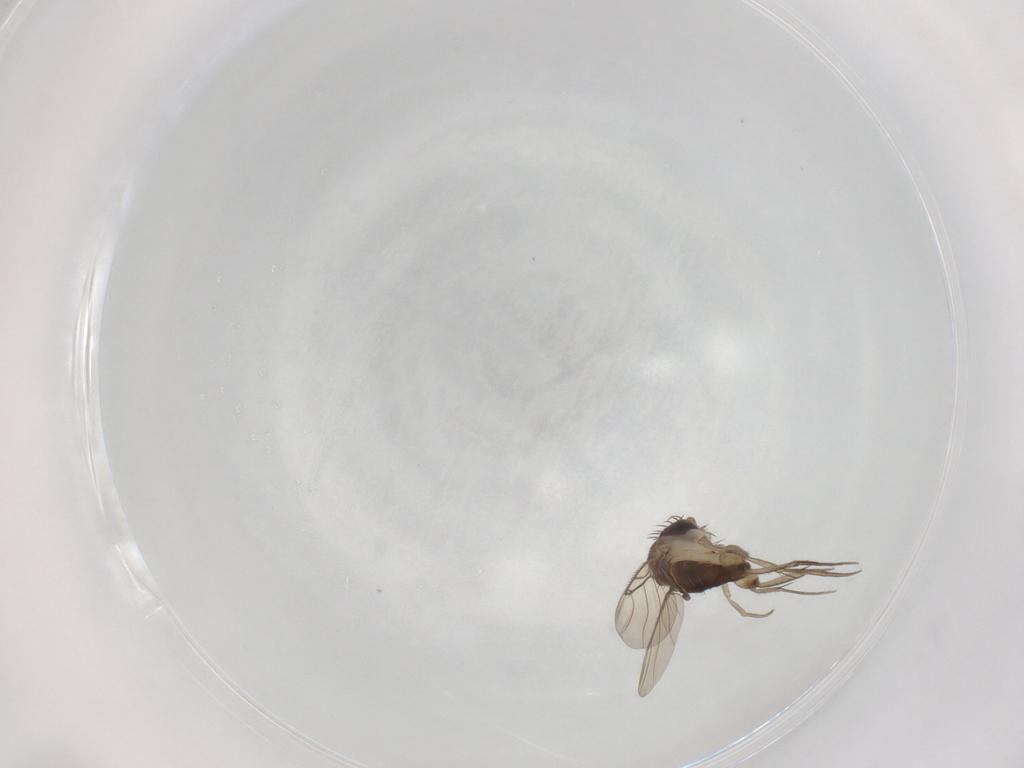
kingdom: Animalia
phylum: Arthropoda
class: Insecta
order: Diptera
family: Phoridae
